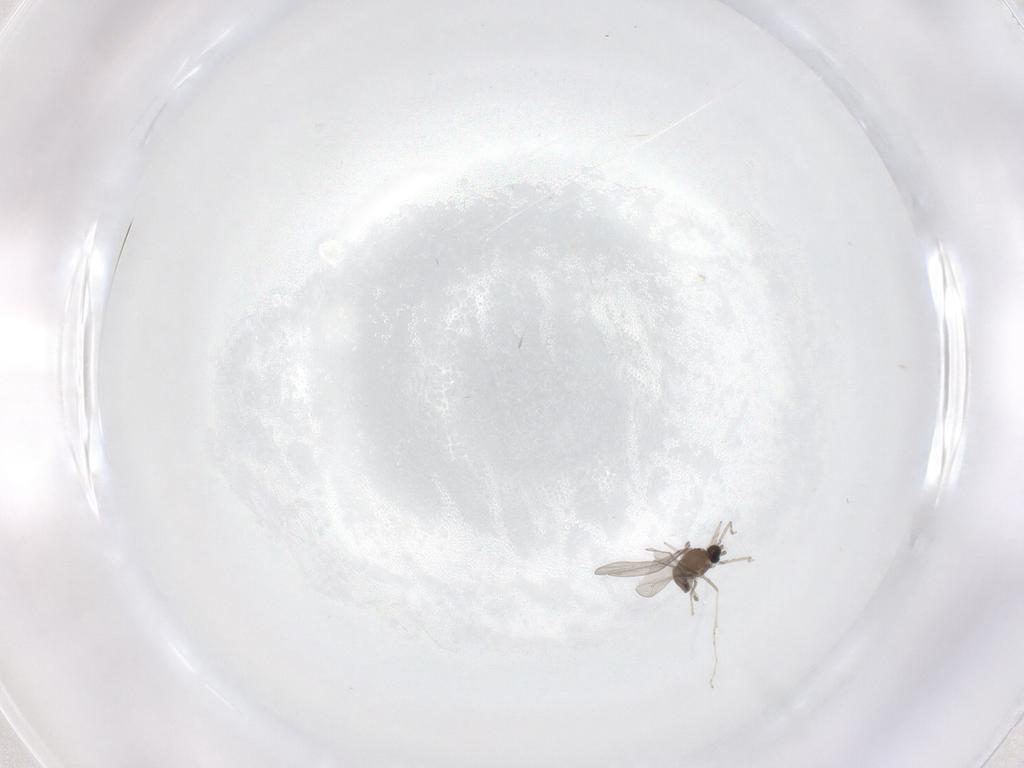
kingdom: Animalia
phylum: Arthropoda
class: Insecta
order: Diptera
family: Cecidomyiidae
